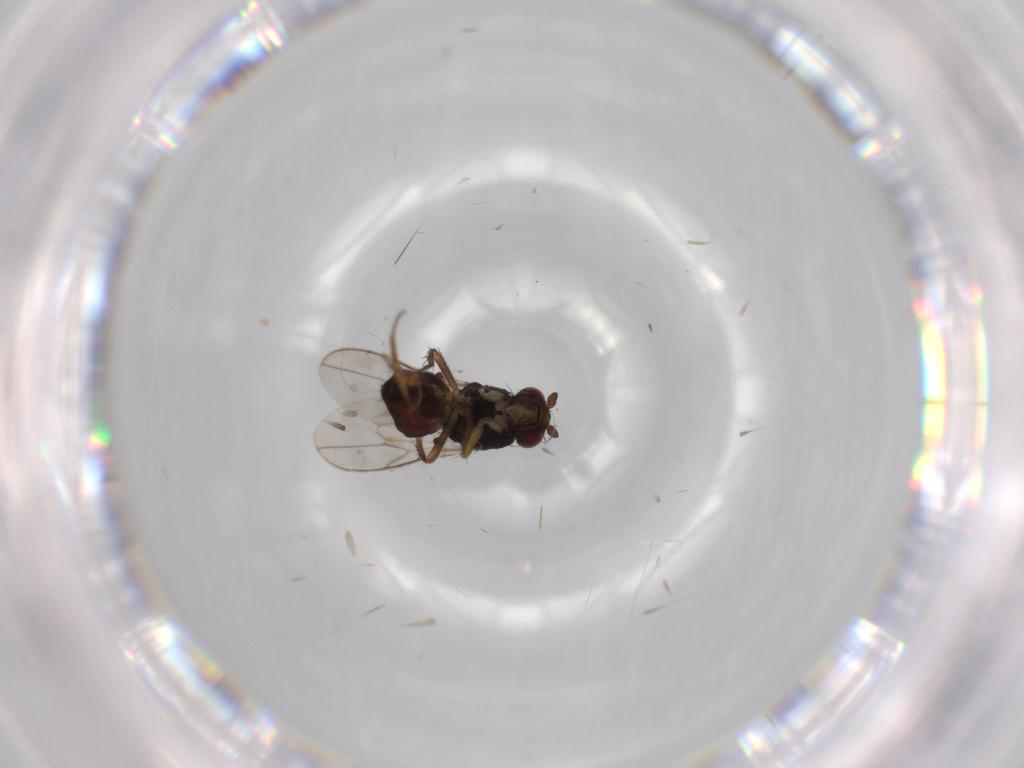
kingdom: Animalia
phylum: Arthropoda
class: Insecta
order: Diptera
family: Sphaeroceridae
